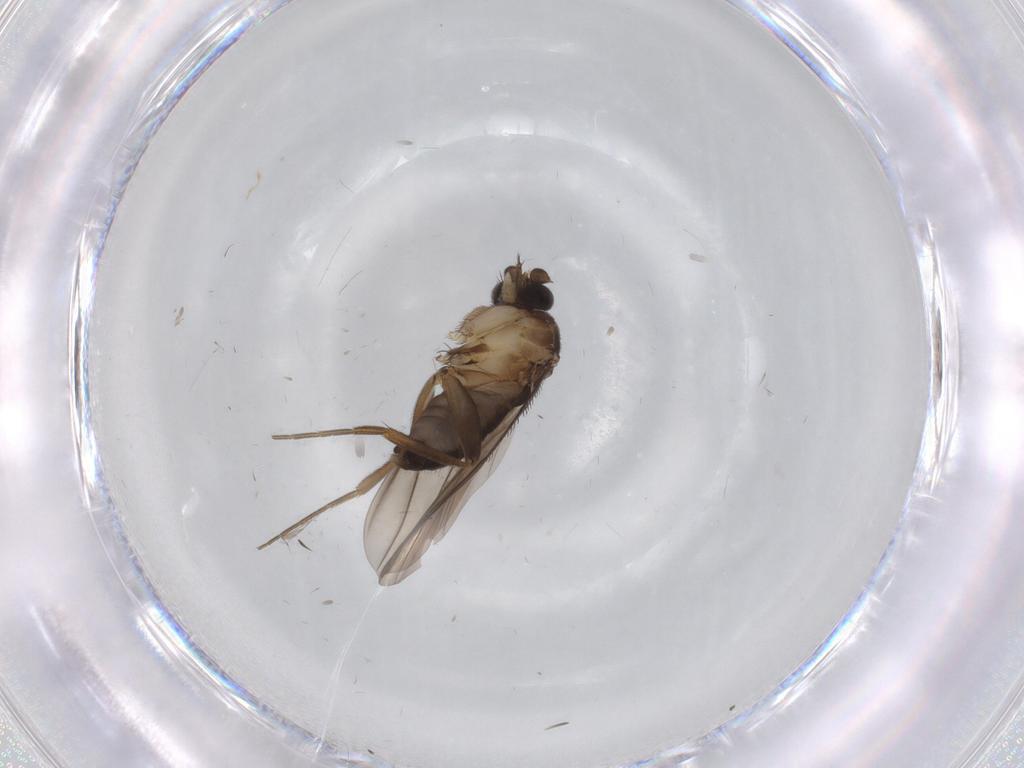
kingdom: Animalia
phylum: Arthropoda
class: Insecta
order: Diptera
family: Phoridae
